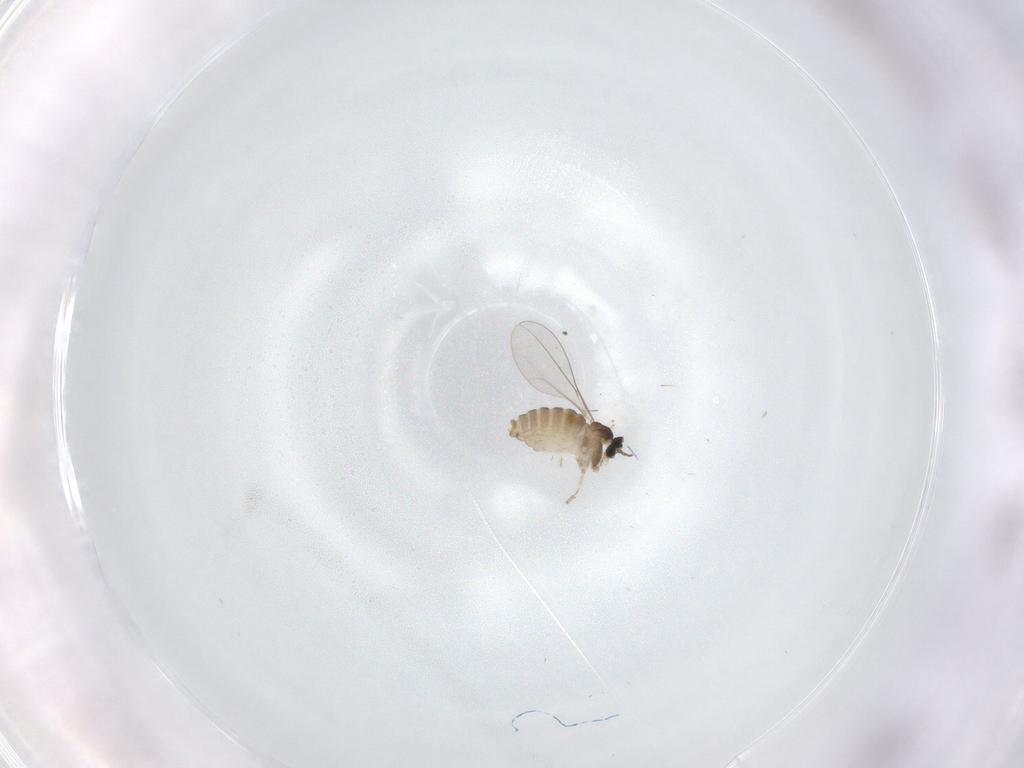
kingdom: Animalia
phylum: Arthropoda
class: Insecta
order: Diptera
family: Cecidomyiidae
